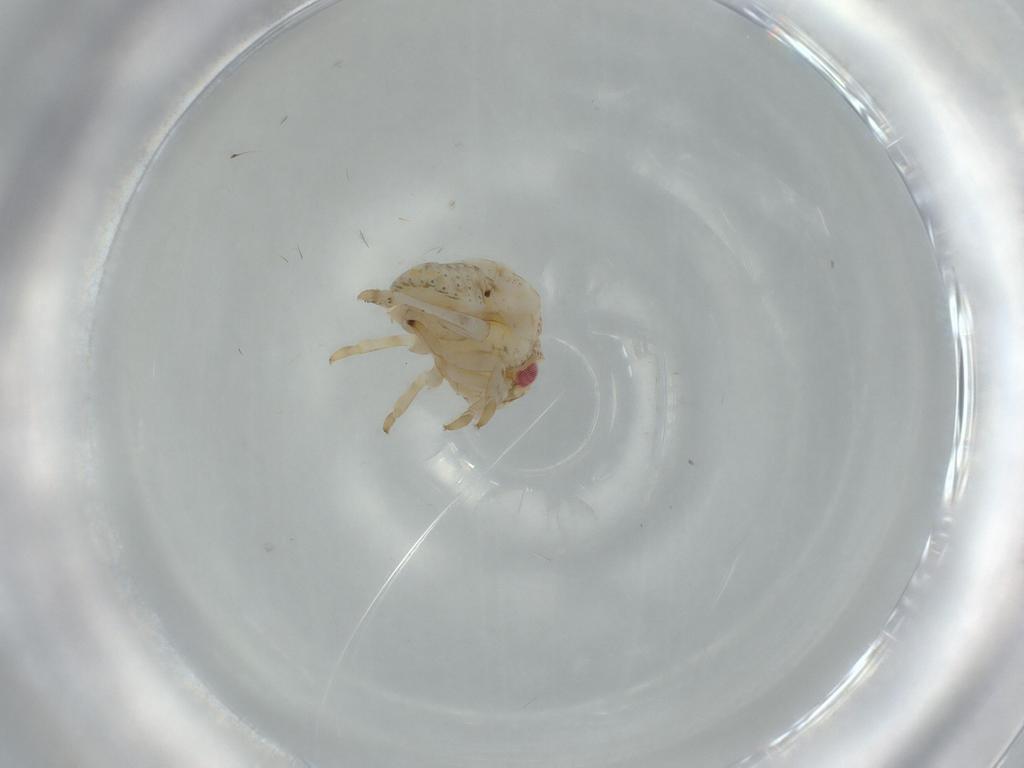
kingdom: Animalia
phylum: Arthropoda
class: Insecta
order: Hemiptera
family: Acanaloniidae
